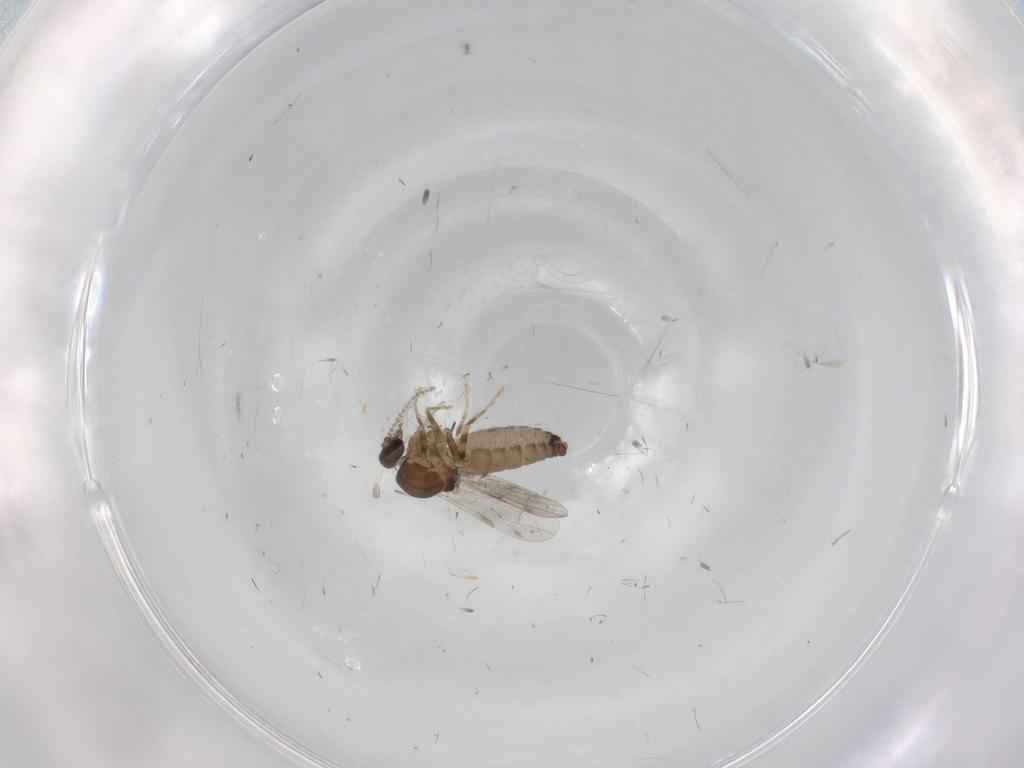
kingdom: Animalia
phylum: Arthropoda
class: Insecta
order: Diptera
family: Ceratopogonidae
